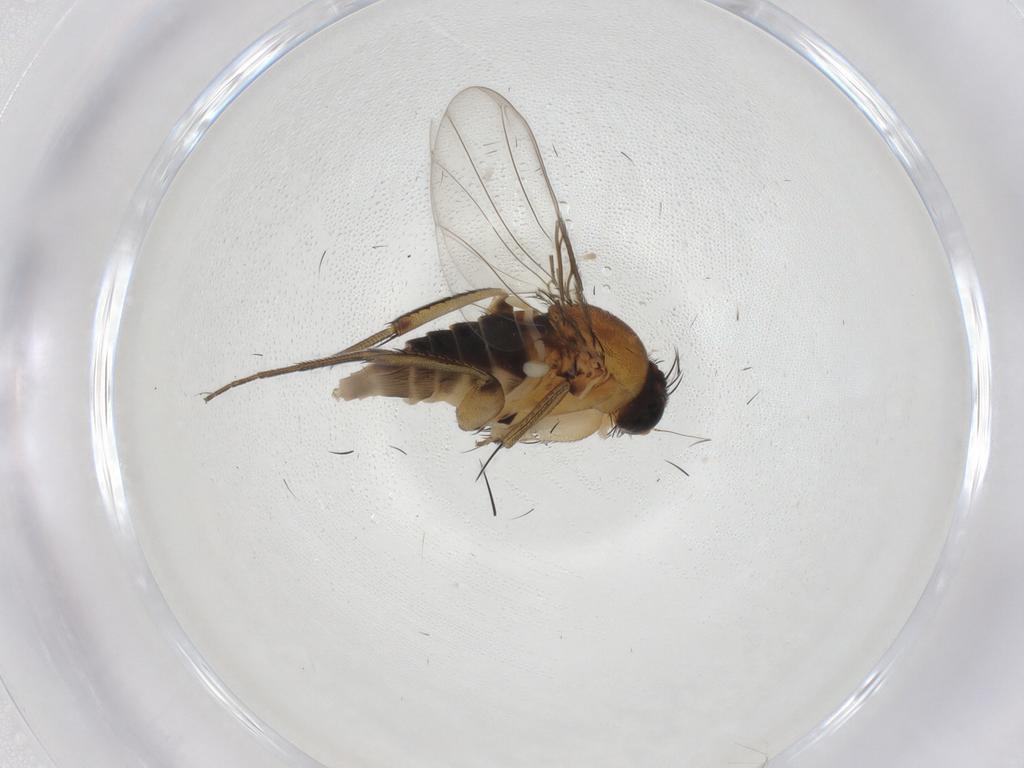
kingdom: Animalia
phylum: Arthropoda
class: Insecta
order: Diptera
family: Phoridae
